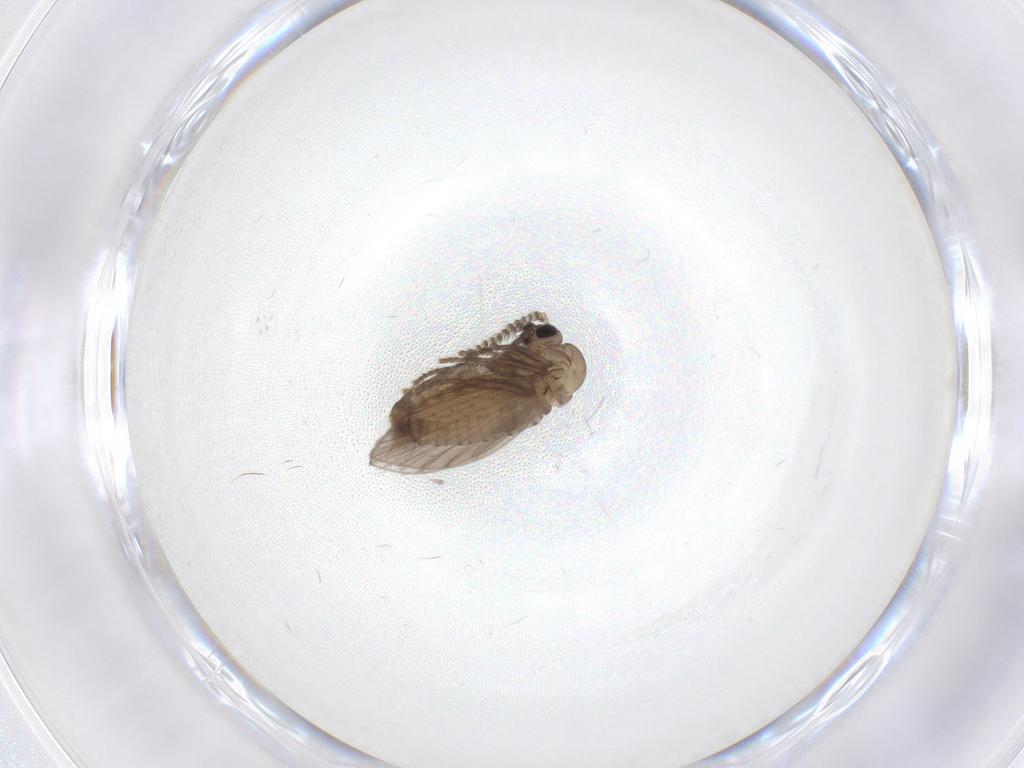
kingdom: Animalia
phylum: Arthropoda
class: Insecta
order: Diptera
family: Psychodidae
